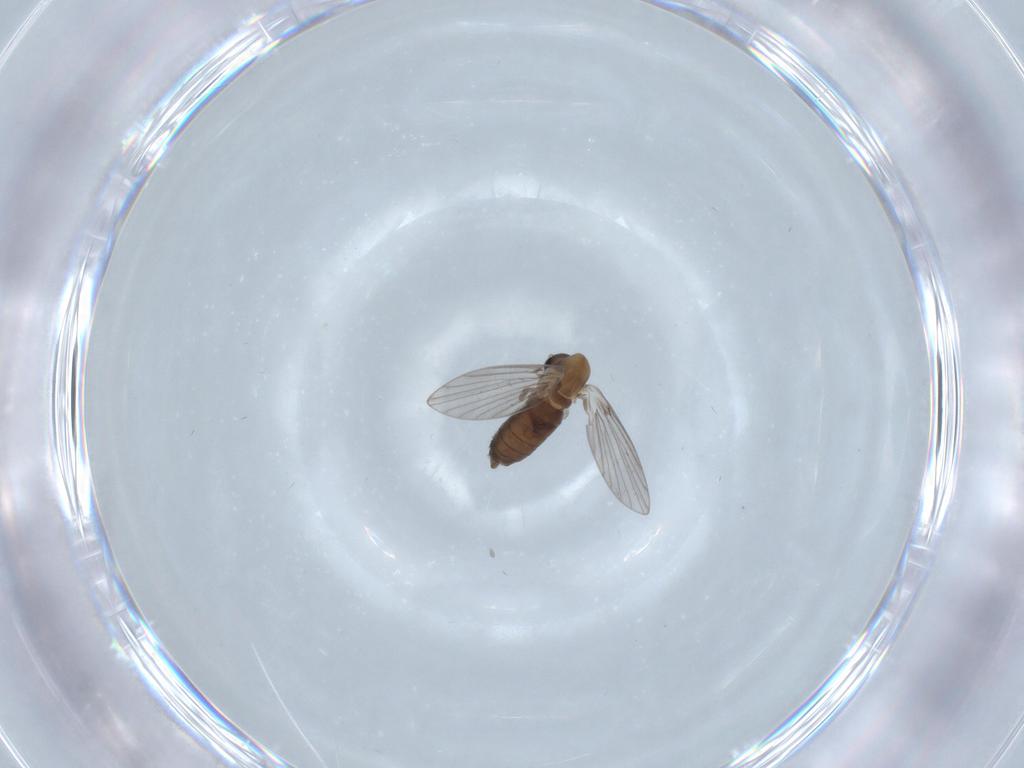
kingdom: Animalia
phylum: Arthropoda
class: Insecta
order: Diptera
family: Psychodidae
